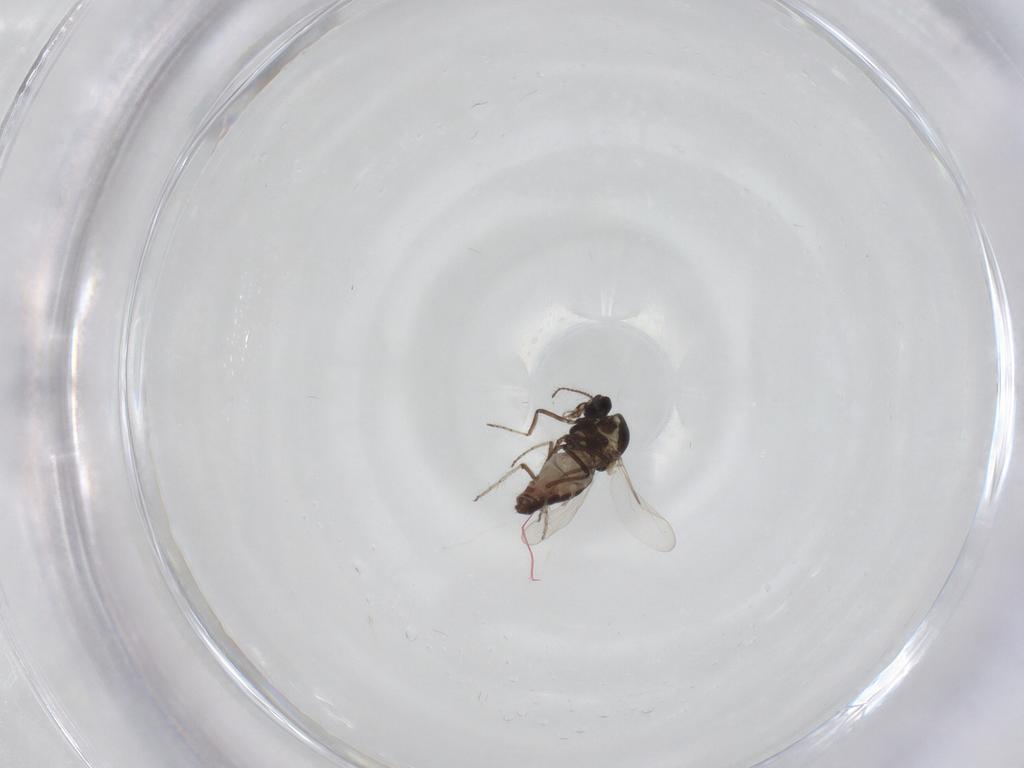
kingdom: Animalia
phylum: Arthropoda
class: Insecta
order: Diptera
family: Ceratopogonidae
